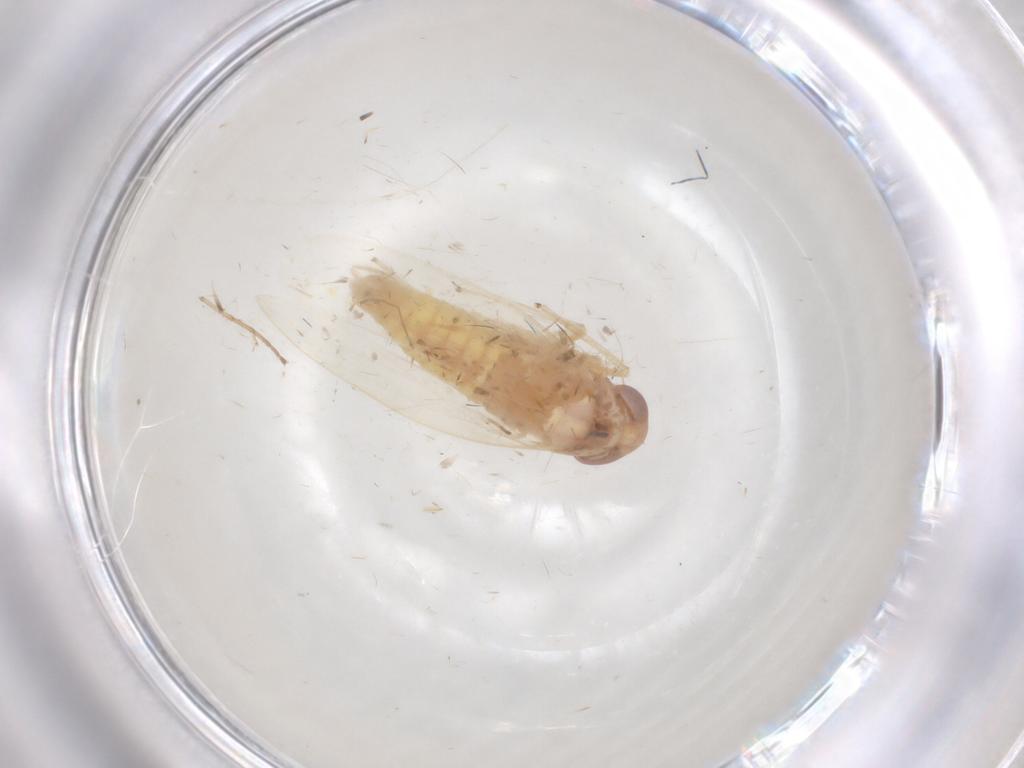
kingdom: Animalia
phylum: Arthropoda
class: Insecta
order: Hemiptera
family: Cicadellidae
